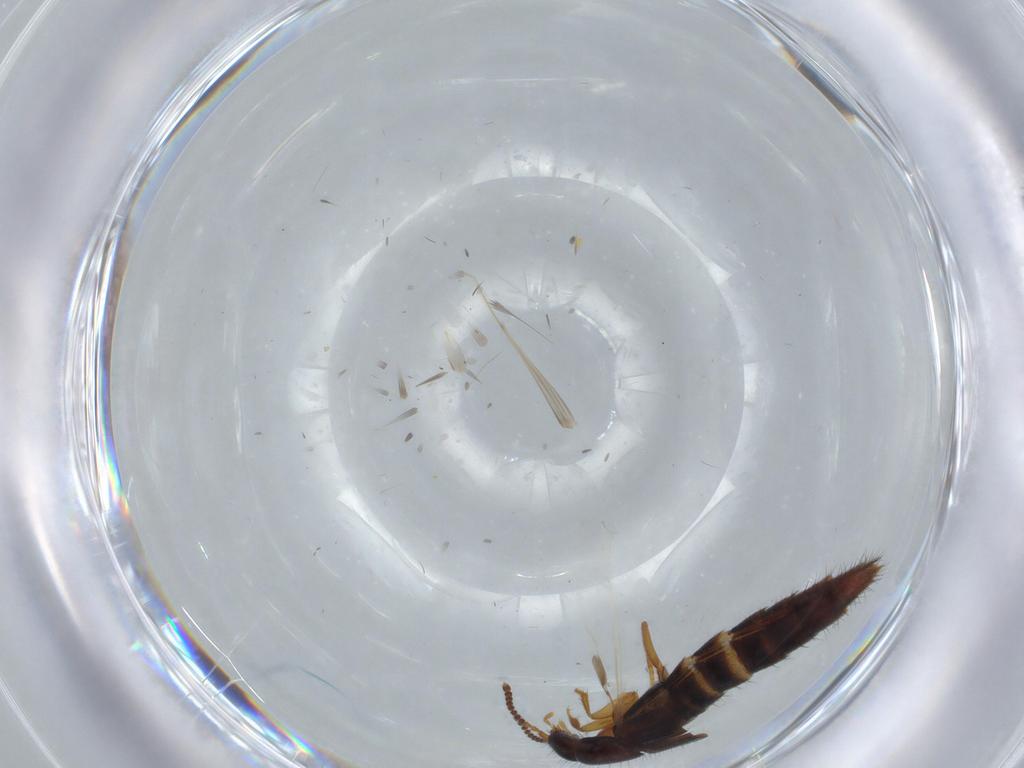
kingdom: Animalia
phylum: Arthropoda
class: Insecta
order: Coleoptera
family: Staphylinidae
